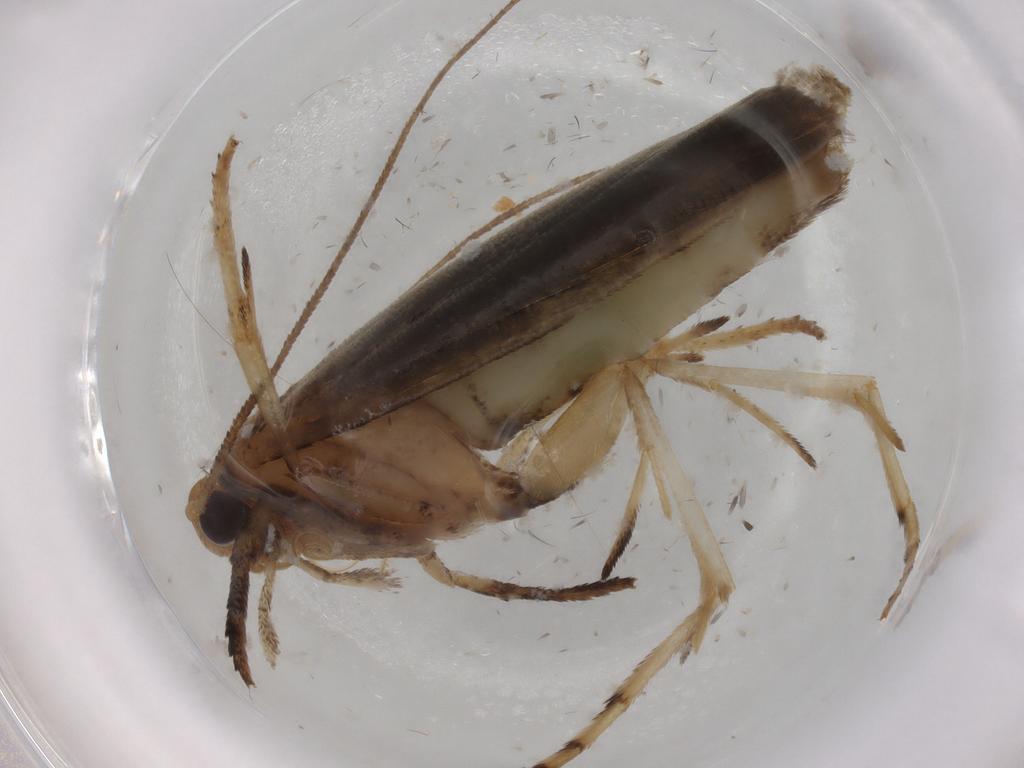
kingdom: Animalia
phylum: Arthropoda
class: Insecta
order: Lepidoptera
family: Yponomeutidae
